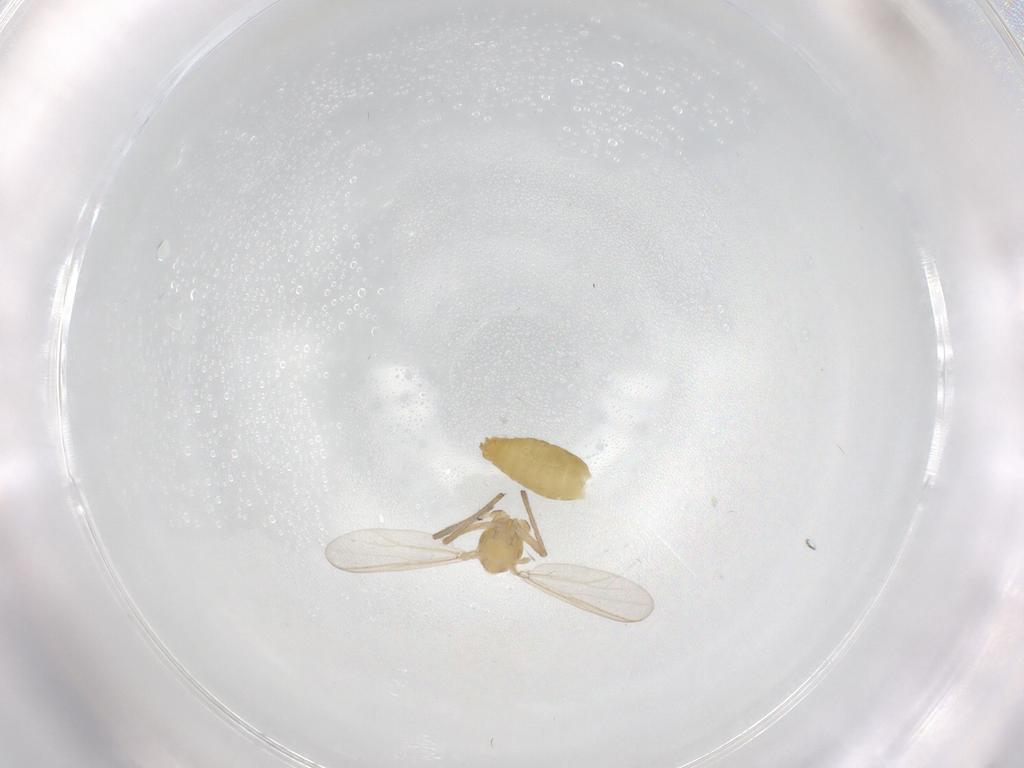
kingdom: Animalia
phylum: Arthropoda
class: Insecta
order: Diptera
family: Chironomidae
